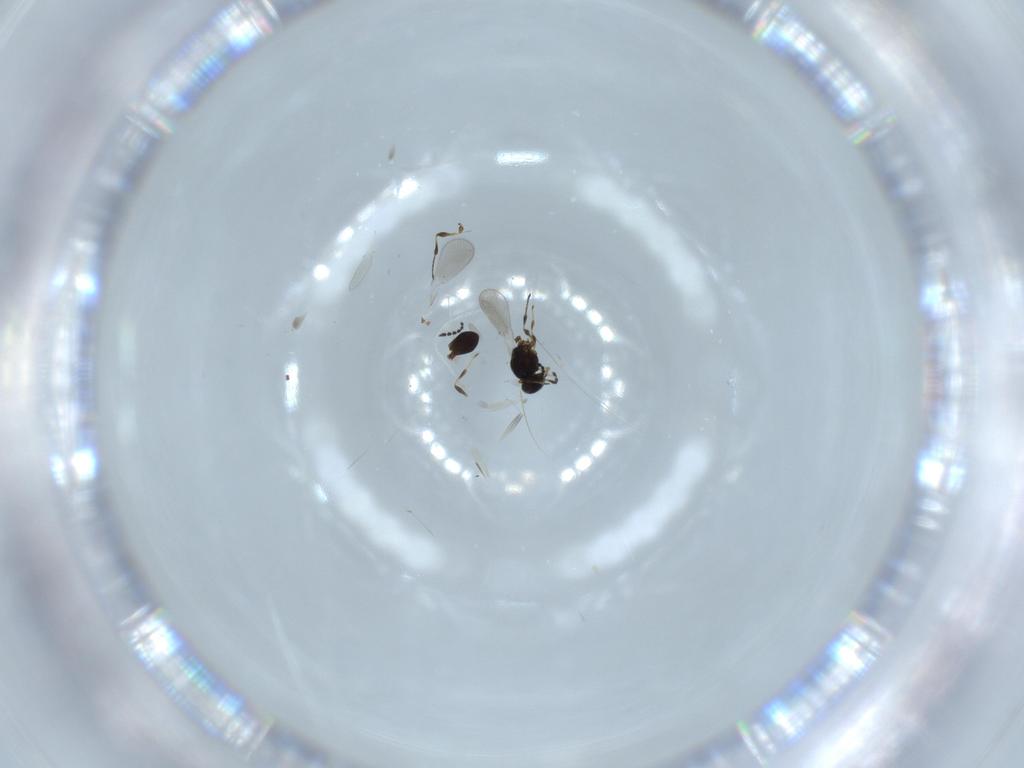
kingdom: Animalia
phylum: Arthropoda
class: Insecta
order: Hymenoptera
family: Platygastridae
